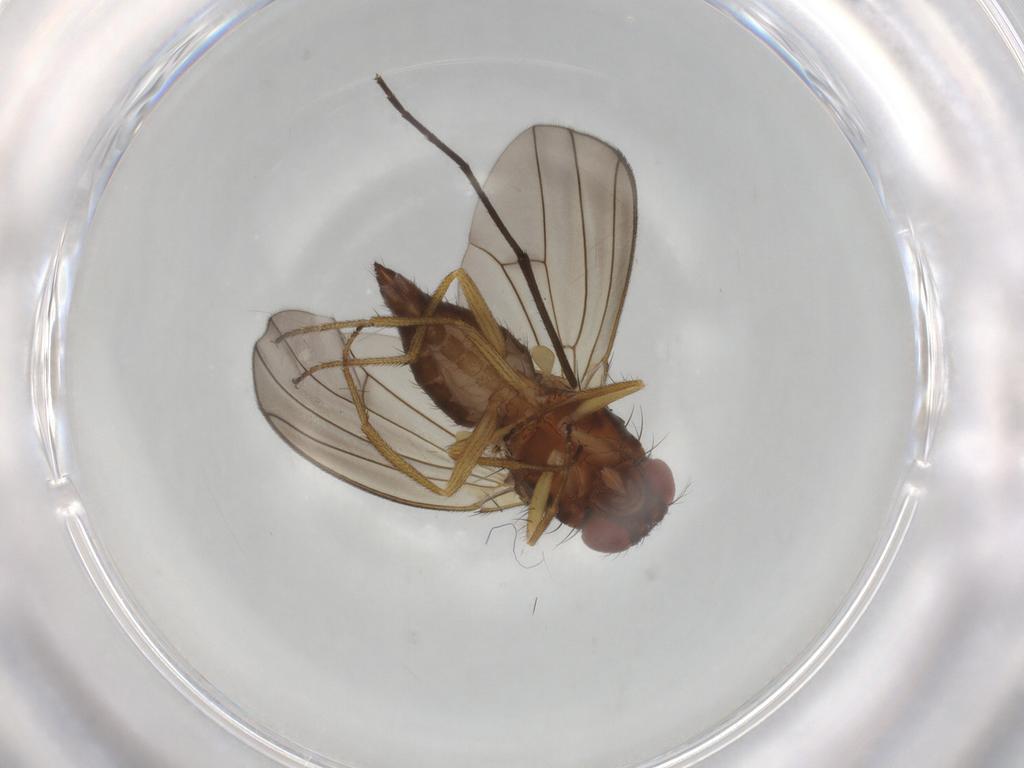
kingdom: Animalia
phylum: Arthropoda
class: Insecta
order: Diptera
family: Drosophilidae
